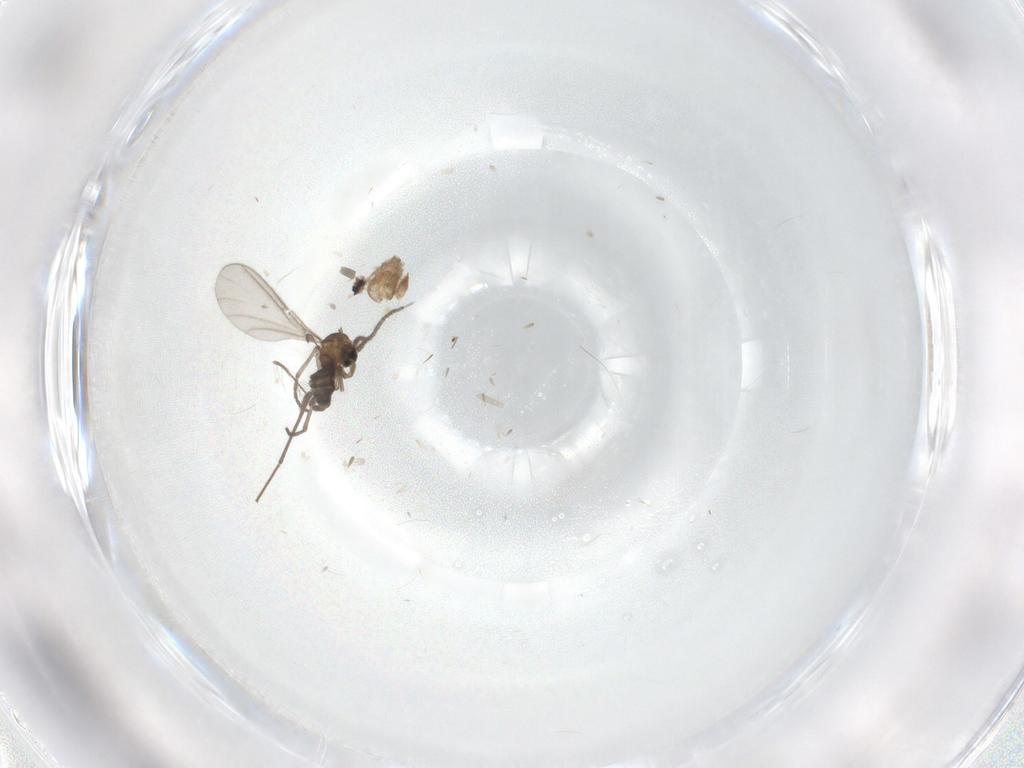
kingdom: Animalia
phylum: Arthropoda
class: Insecta
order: Diptera
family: Sciaridae
